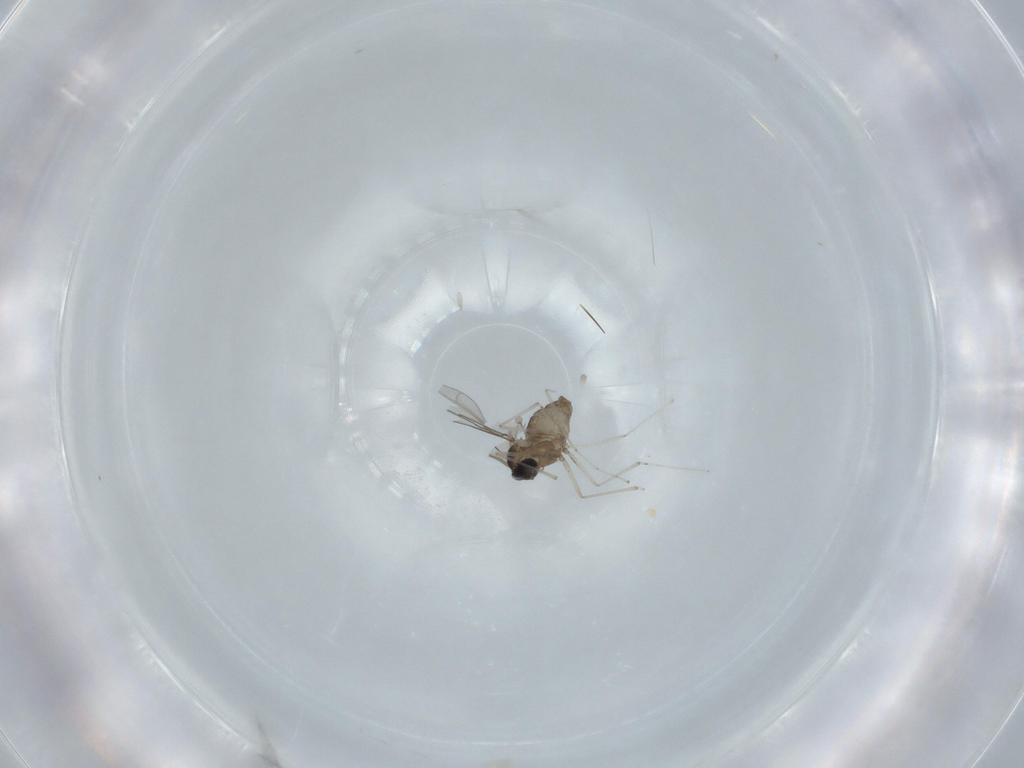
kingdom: Animalia
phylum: Arthropoda
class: Insecta
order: Diptera
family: Cecidomyiidae
